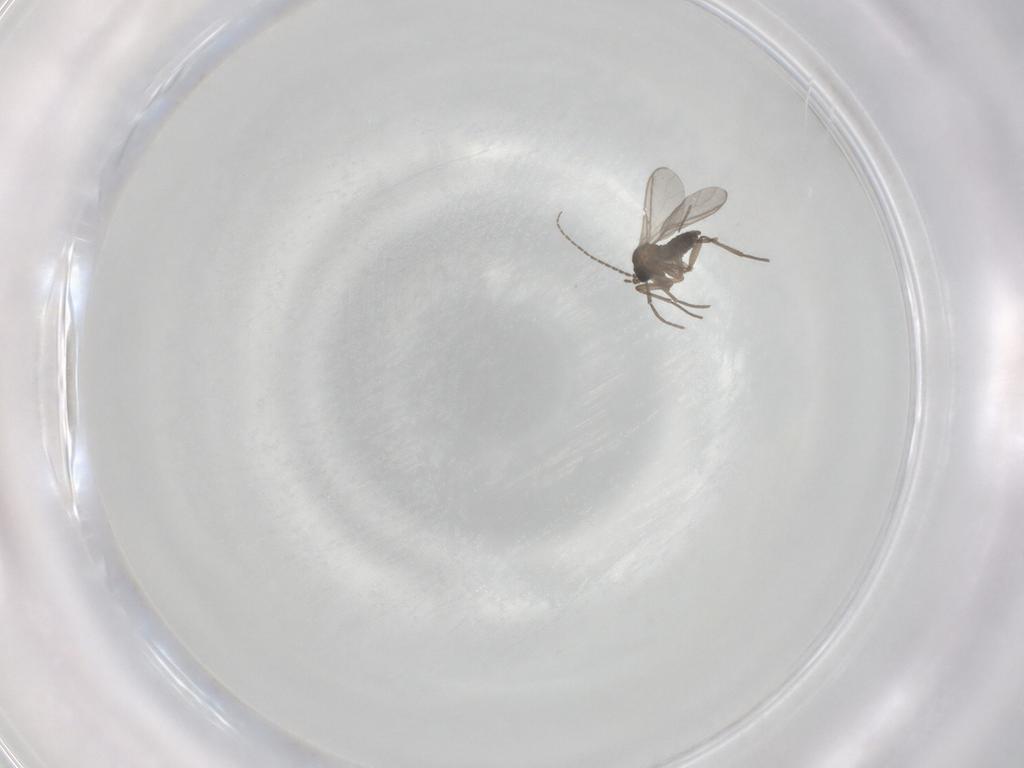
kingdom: Animalia
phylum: Arthropoda
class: Insecta
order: Diptera
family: Sciaridae
